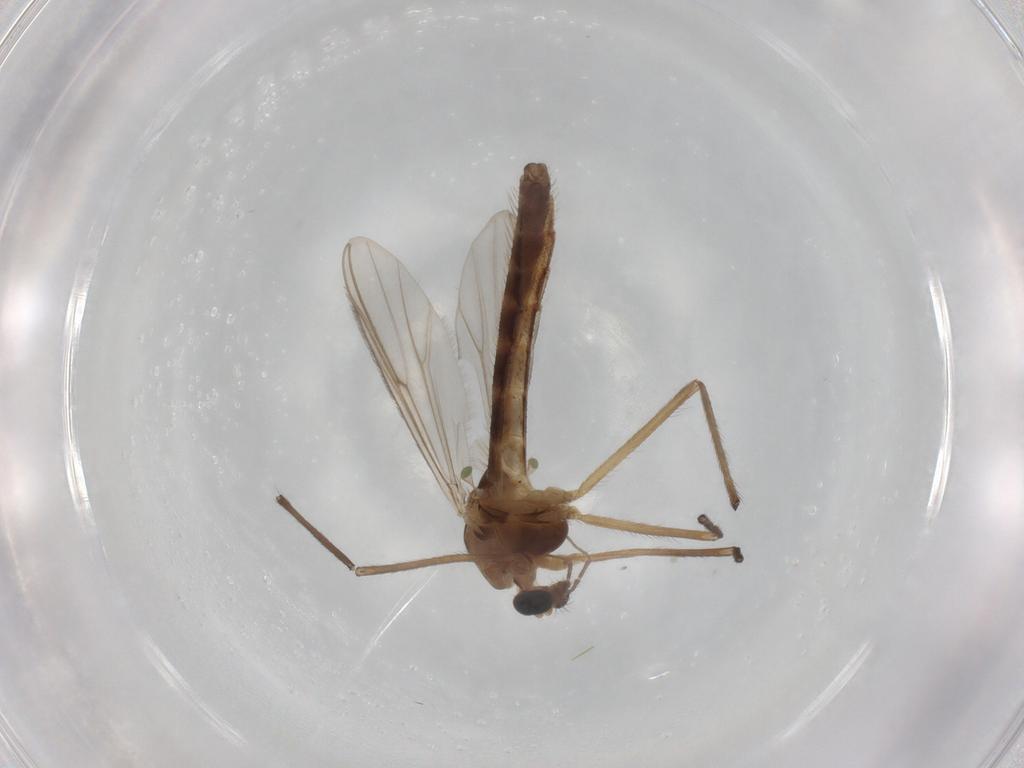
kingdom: Animalia
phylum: Arthropoda
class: Insecta
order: Diptera
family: Chironomidae
